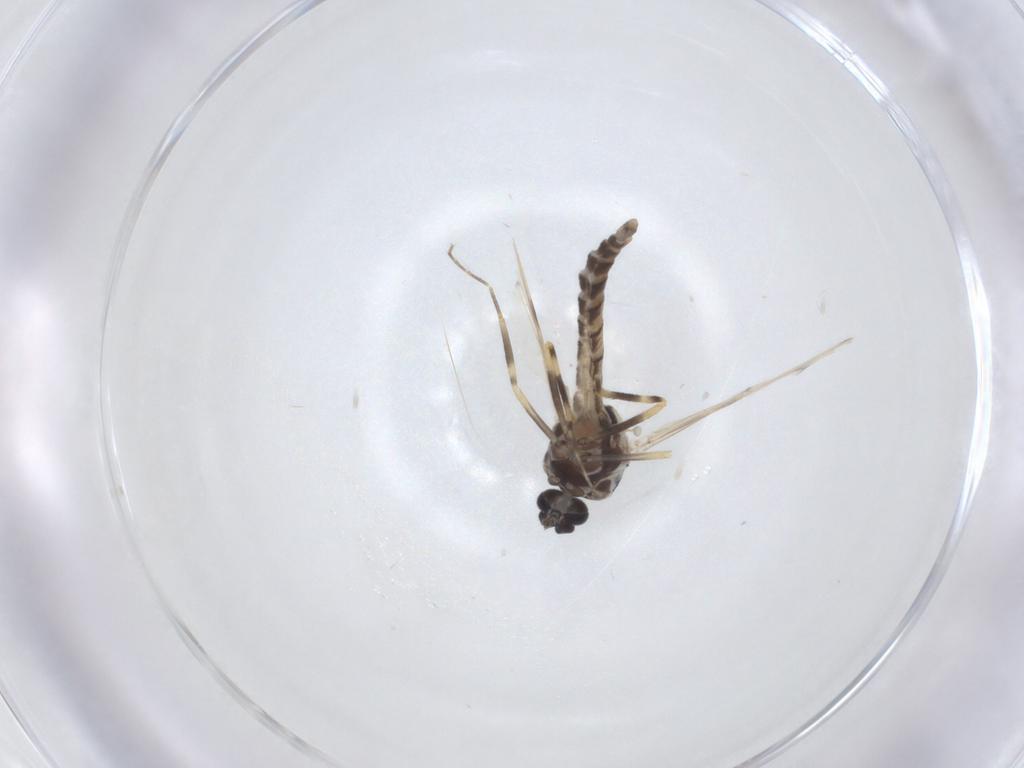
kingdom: Animalia
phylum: Arthropoda
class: Insecta
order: Diptera
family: Ceratopogonidae
